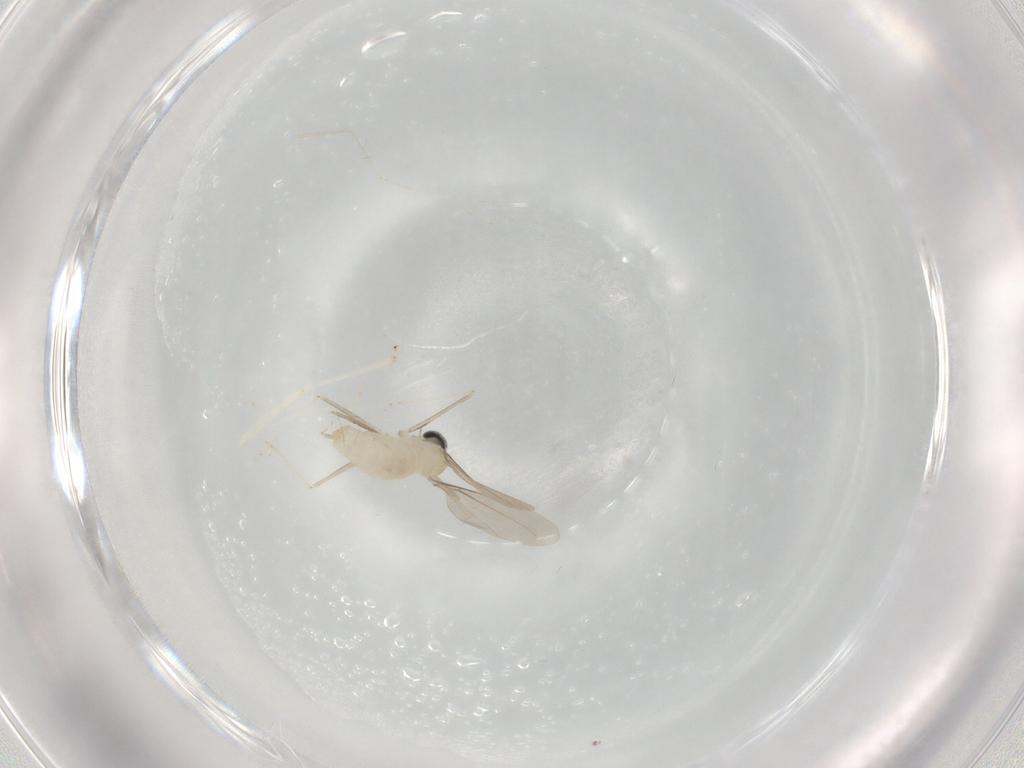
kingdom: Animalia
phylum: Arthropoda
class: Insecta
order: Diptera
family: Cecidomyiidae
